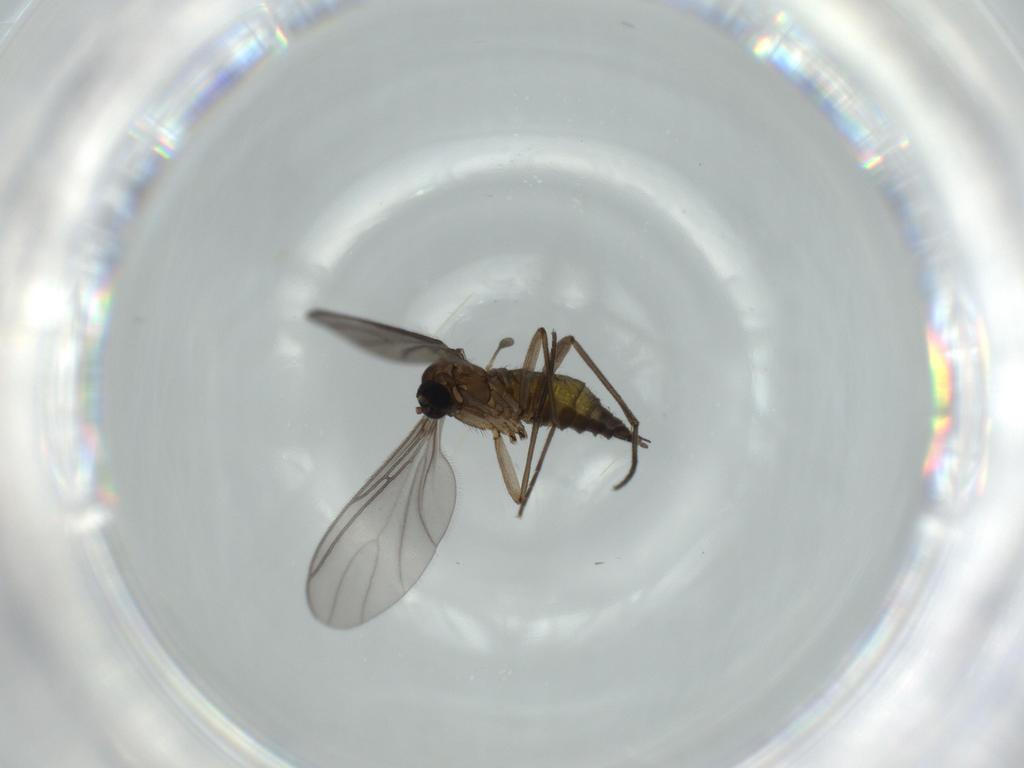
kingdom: Animalia
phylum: Arthropoda
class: Insecta
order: Diptera
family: Sciaridae
